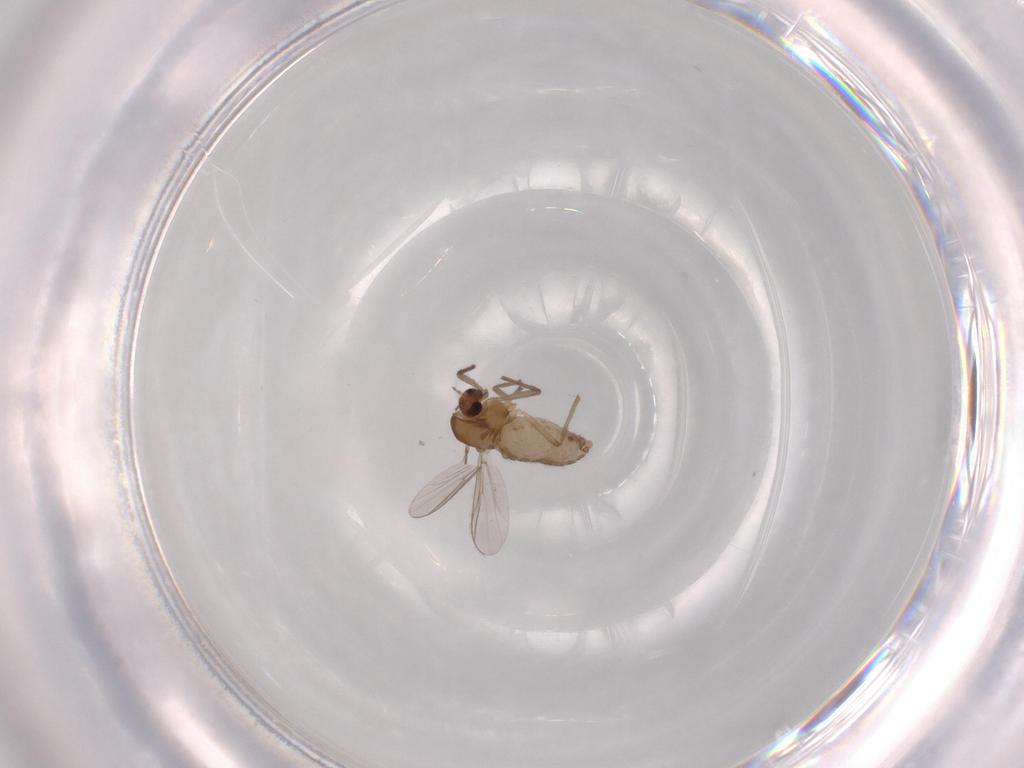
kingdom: Animalia
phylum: Arthropoda
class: Insecta
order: Diptera
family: Chironomidae
